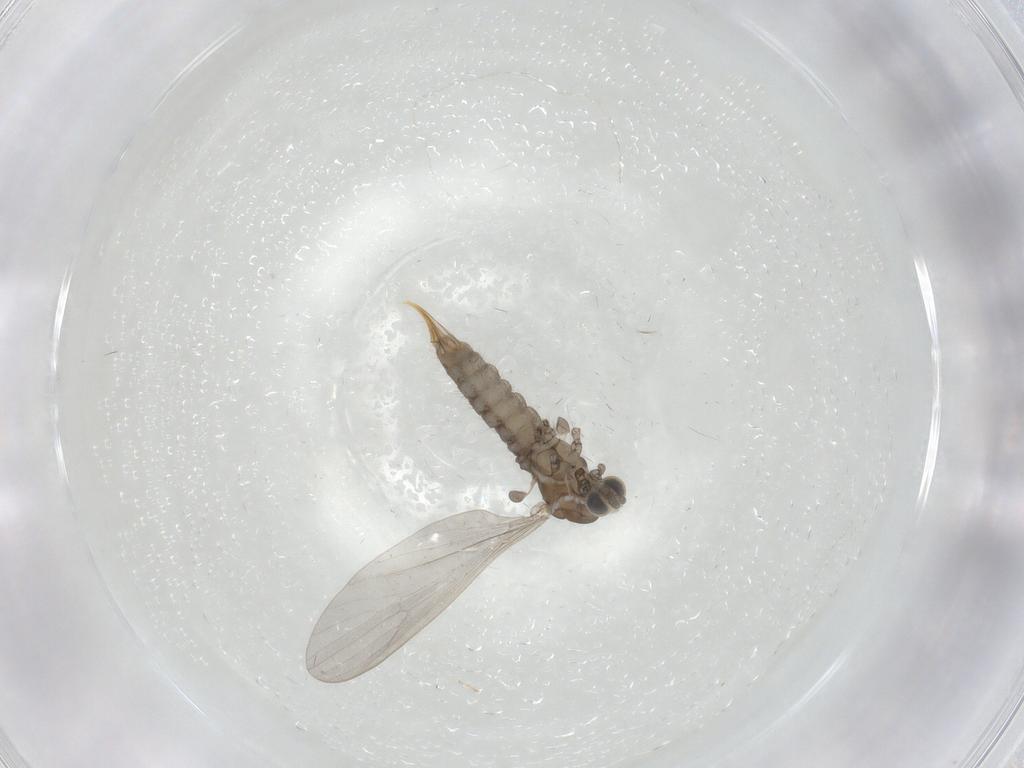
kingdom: Animalia
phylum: Arthropoda
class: Insecta
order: Diptera
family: Limoniidae
